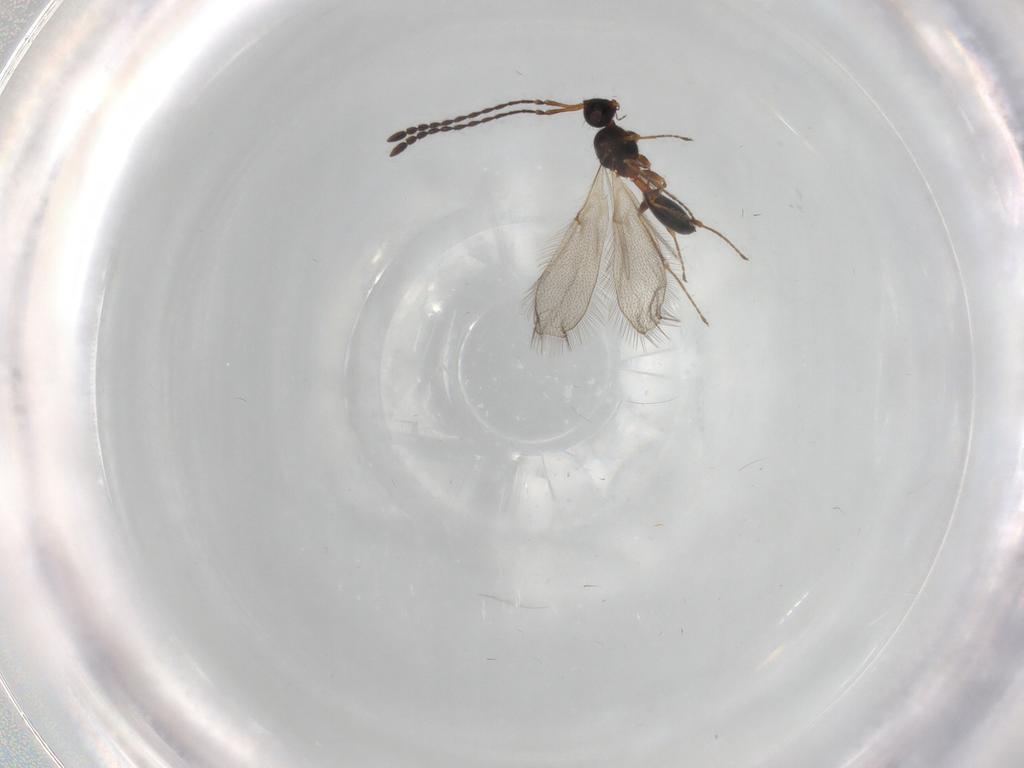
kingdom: Animalia
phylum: Arthropoda
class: Insecta
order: Hymenoptera
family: Diapriidae
